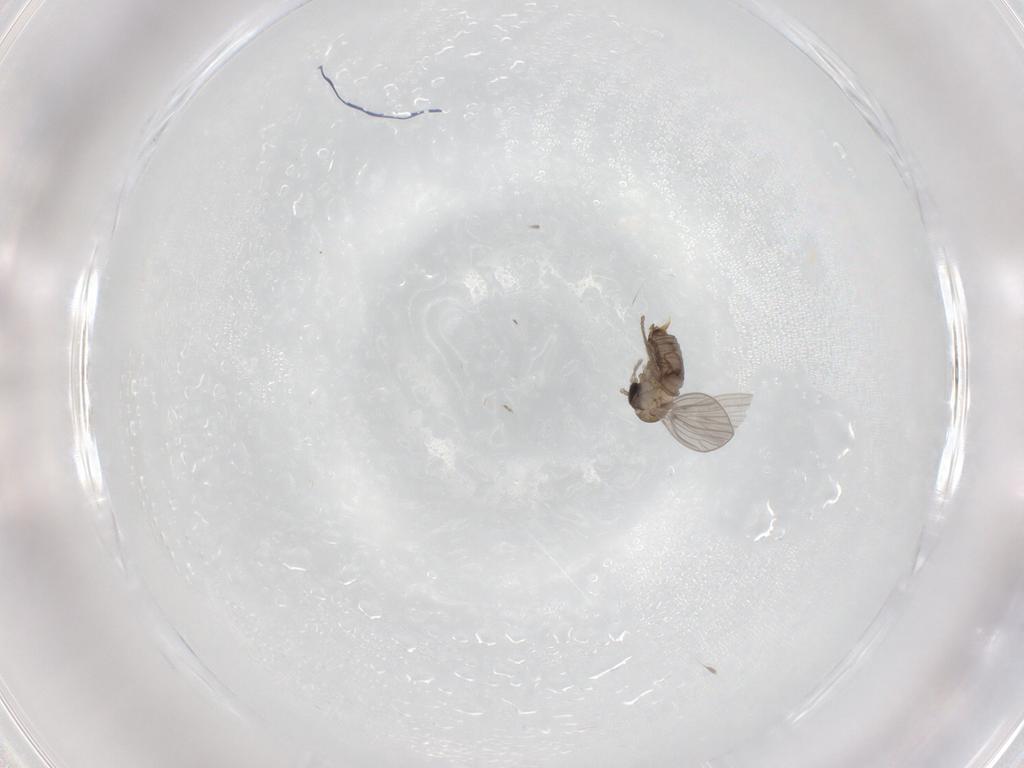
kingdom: Animalia
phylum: Arthropoda
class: Insecta
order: Diptera
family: Psychodidae
